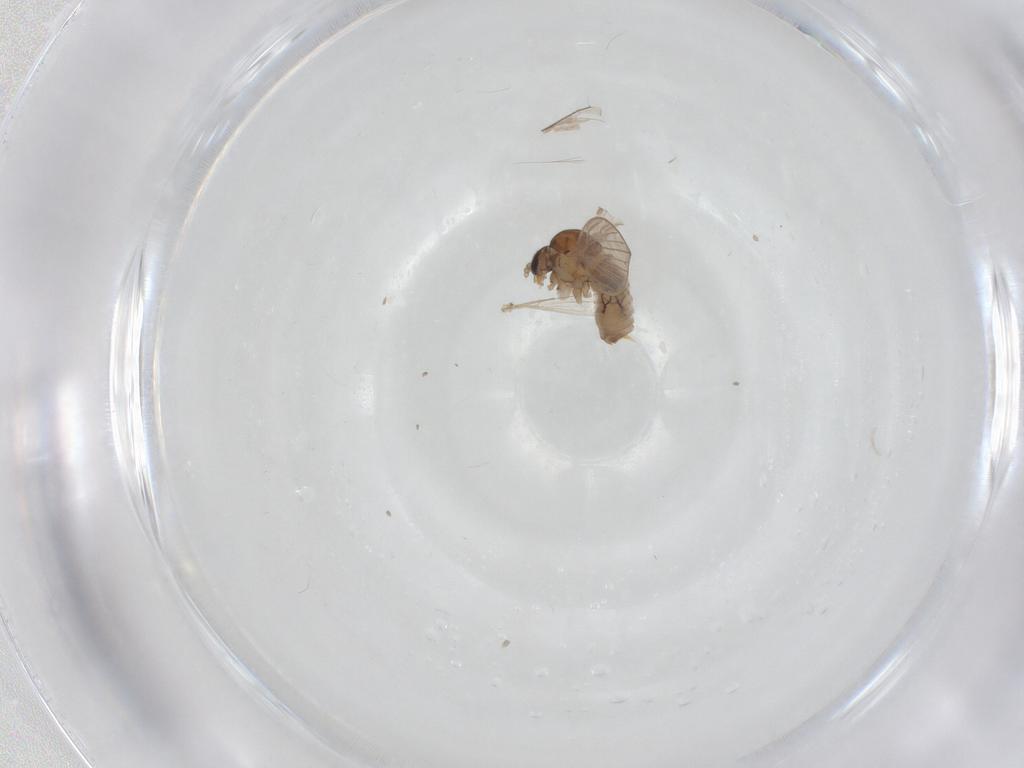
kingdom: Animalia
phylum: Arthropoda
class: Insecta
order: Diptera
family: Psychodidae
